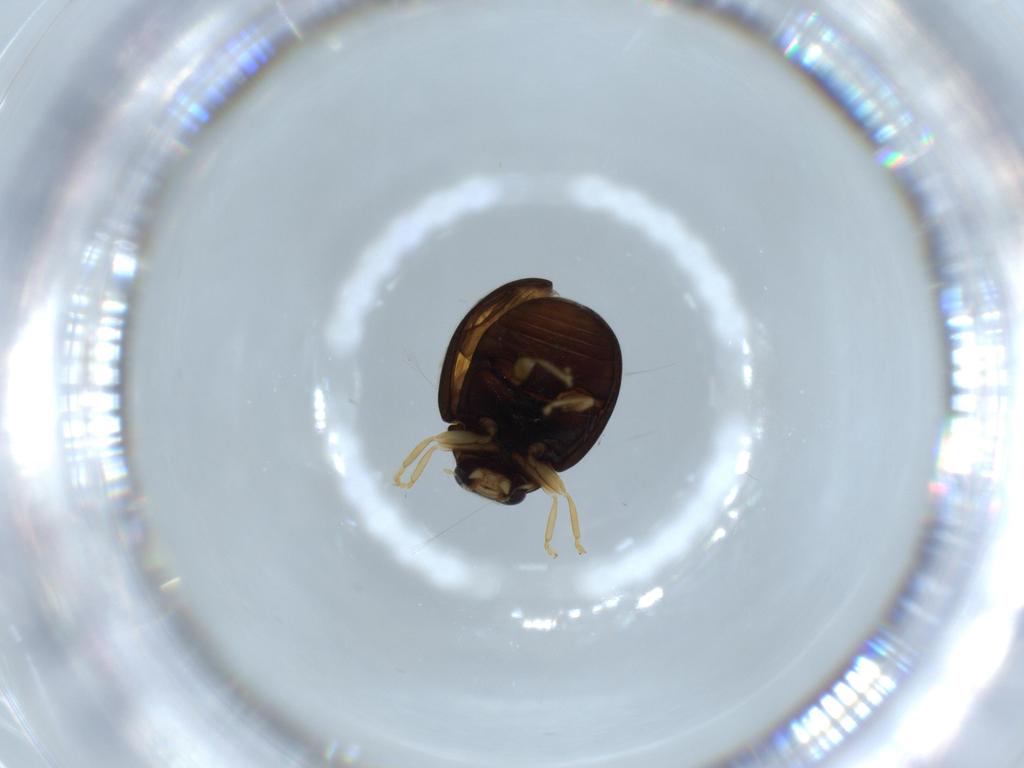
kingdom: Animalia
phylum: Arthropoda
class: Insecta
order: Coleoptera
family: Coccinellidae
